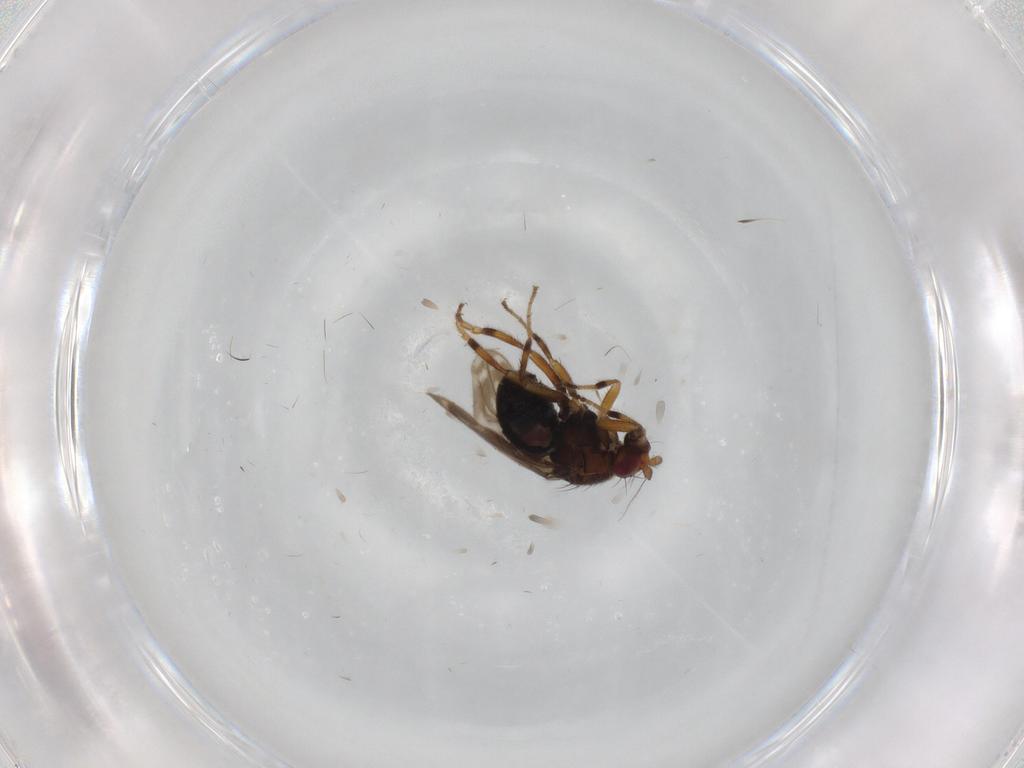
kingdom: Animalia
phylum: Arthropoda
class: Insecta
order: Diptera
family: Sphaeroceridae
